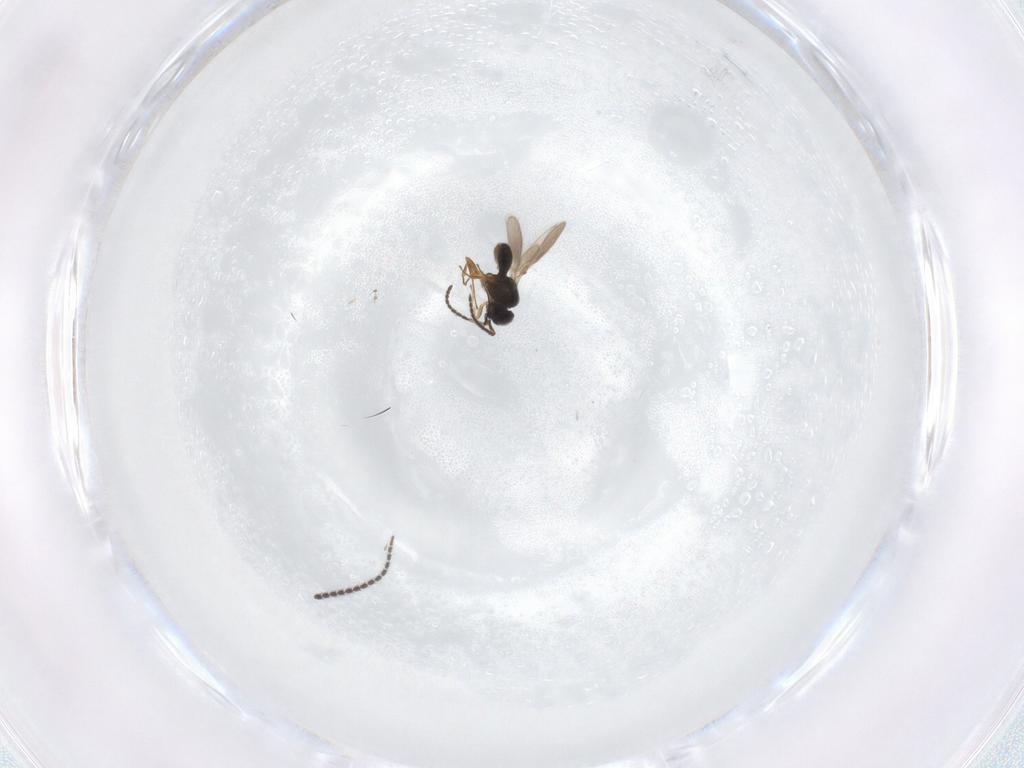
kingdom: Animalia
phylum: Arthropoda
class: Insecta
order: Hymenoptera
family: Scelionidae
